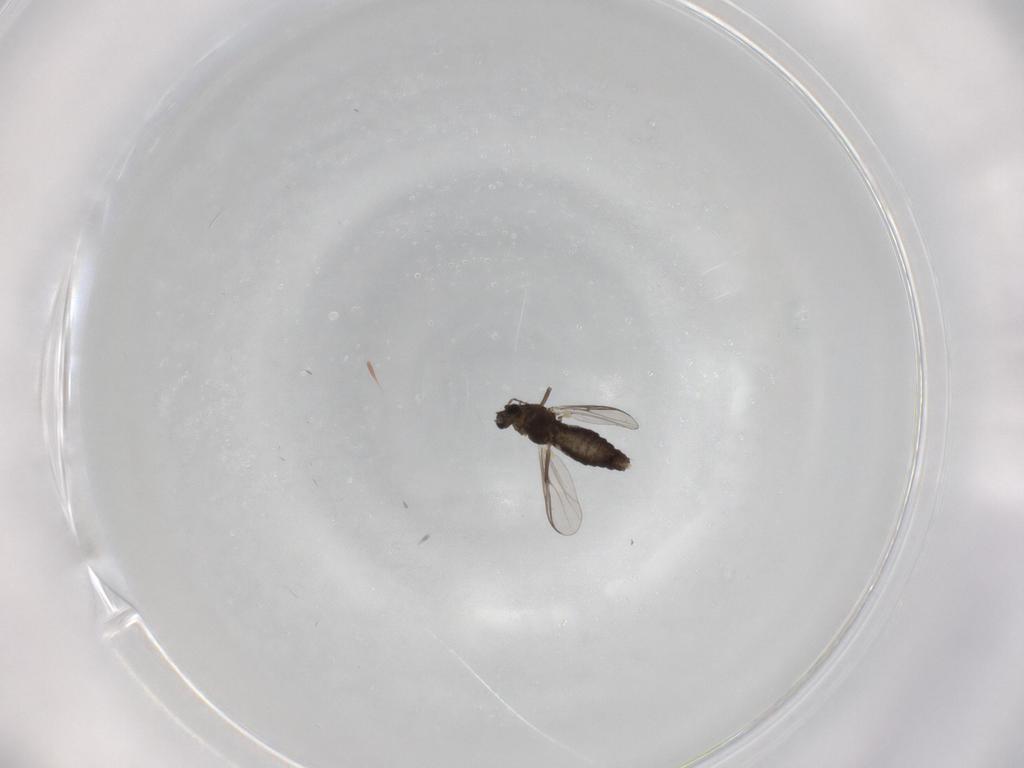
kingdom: Animalia
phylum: Arthropoda
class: Insecta
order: Diptera
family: Chironomidae
